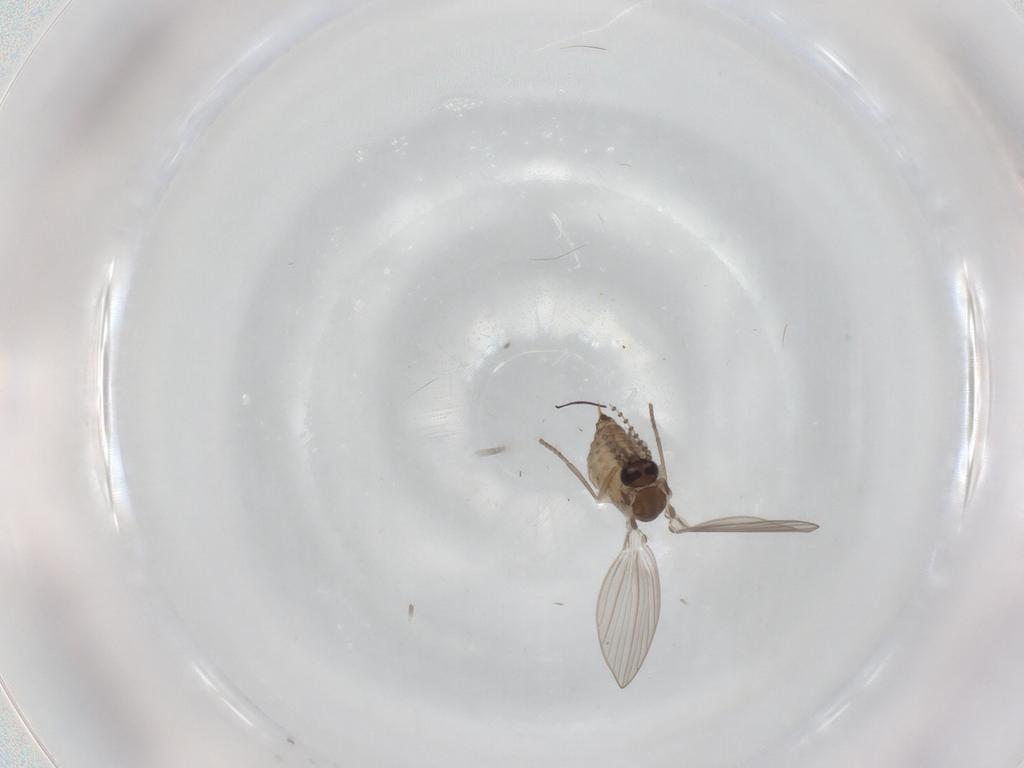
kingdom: Animalia
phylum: Arthropoda
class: Insecta
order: Diptera
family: Psychodidae
